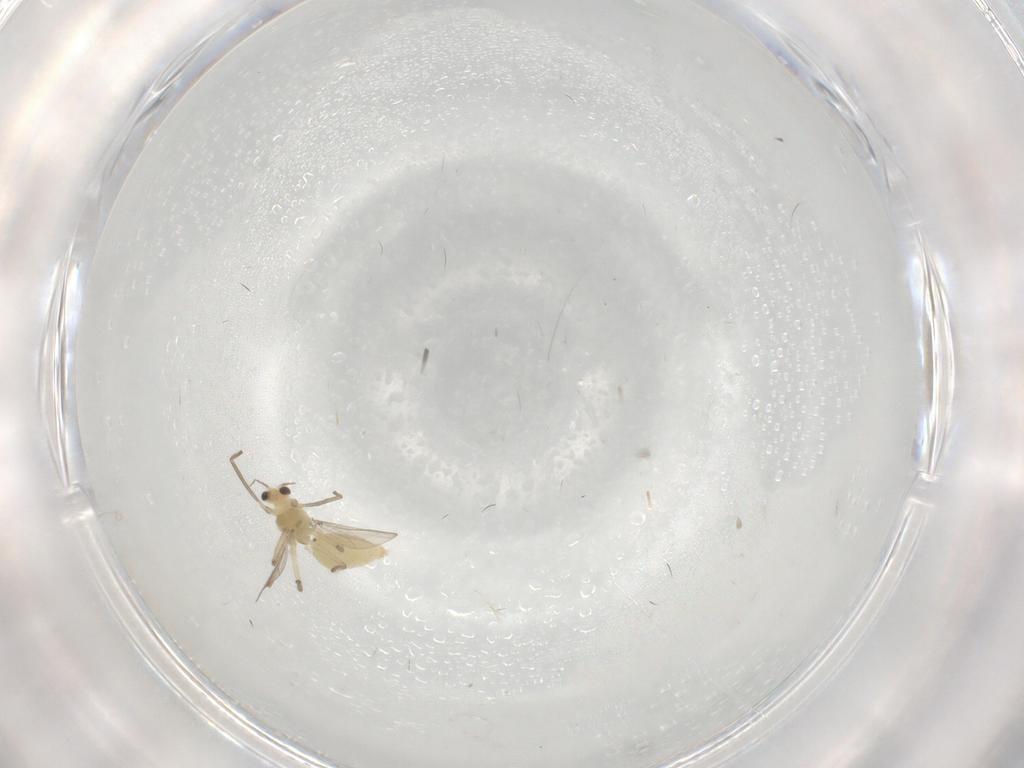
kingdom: Animalia
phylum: Arthropoda
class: Insecta
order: Diptera
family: Chironomidae
